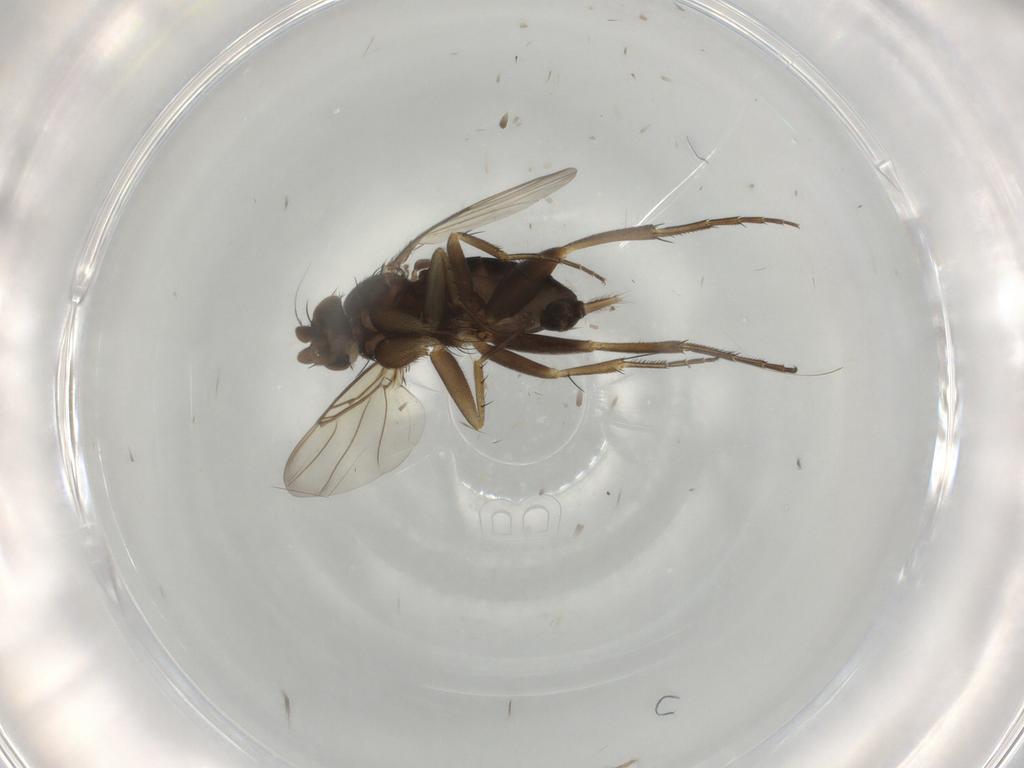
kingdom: Animalia
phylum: Arthropoda
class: Insecta
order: Diptera
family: Phoridae
